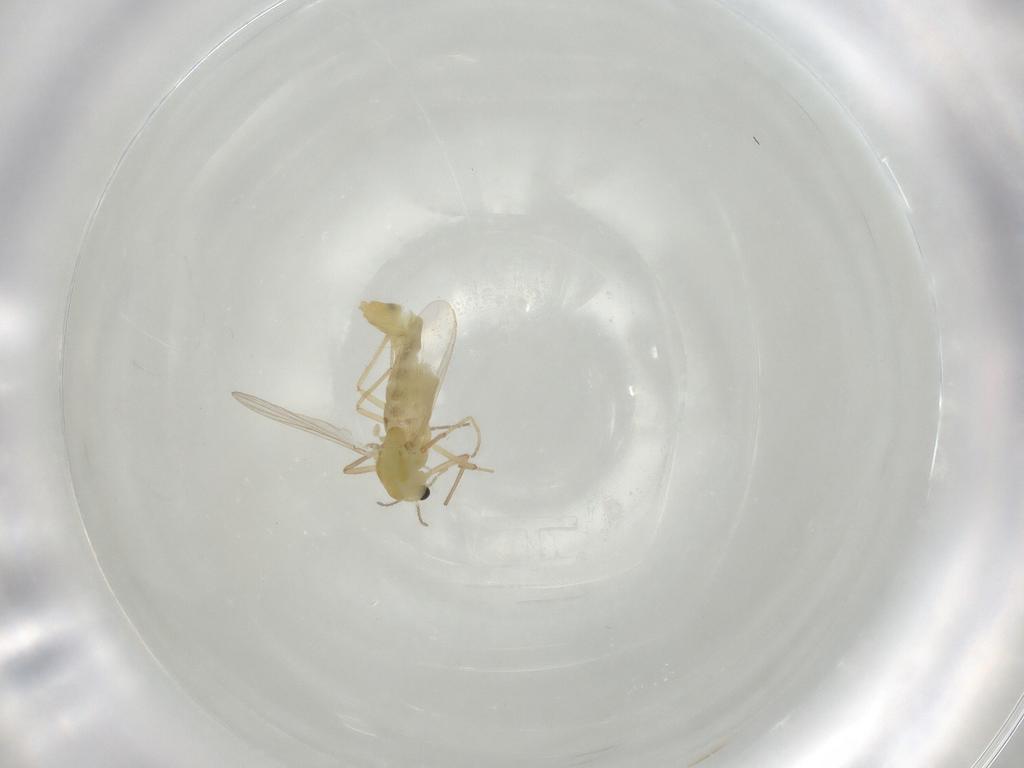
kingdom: Animalia
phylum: Arthropoda
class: Insecta
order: Diptera
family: Chironomidae
